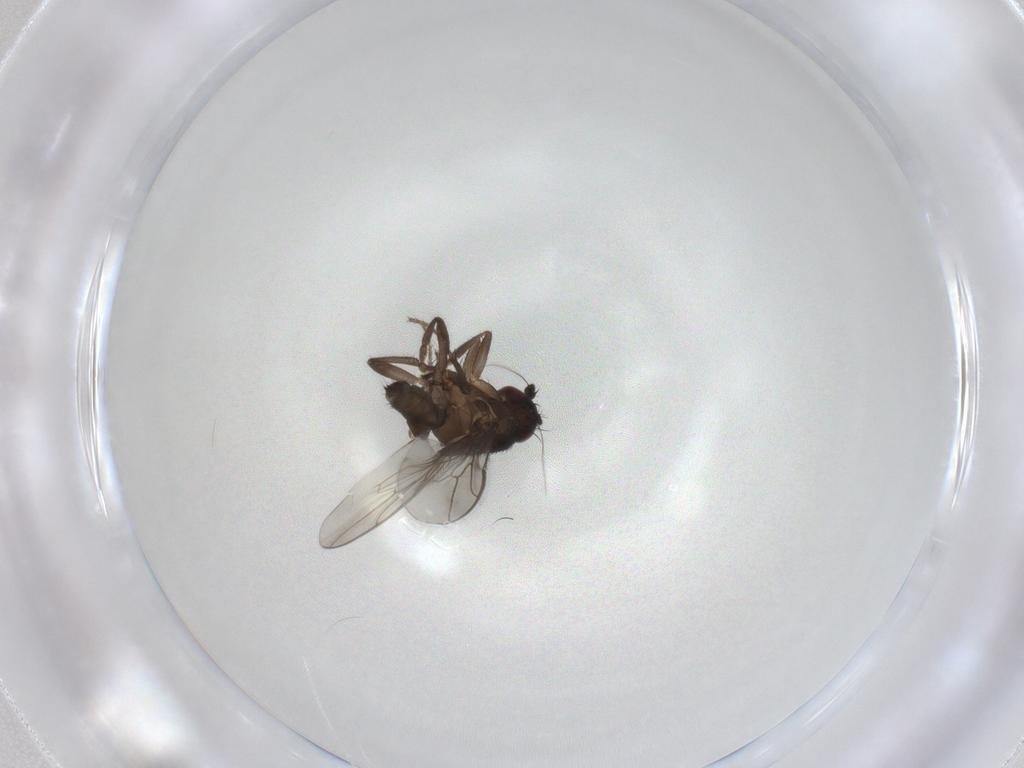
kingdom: Animalia
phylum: Arthropoda
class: Insecta
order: Diptera
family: Sphaeroceridae
